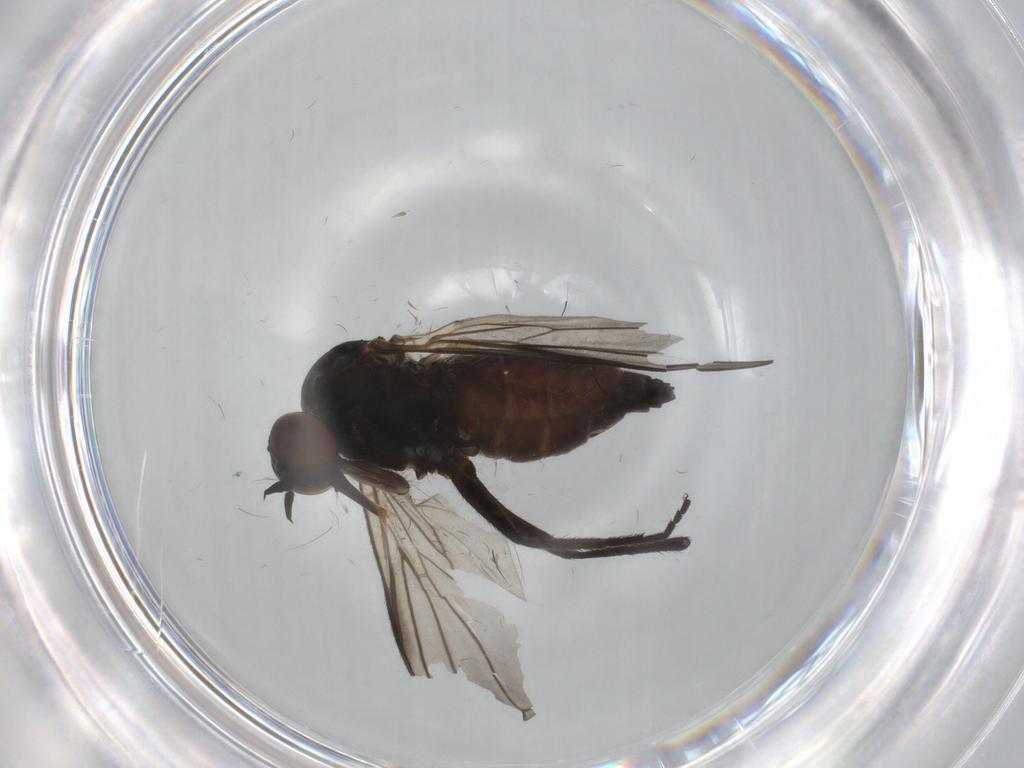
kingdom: Animalia
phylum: Arthropoda
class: Insecta
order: Diptera
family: Empididae
